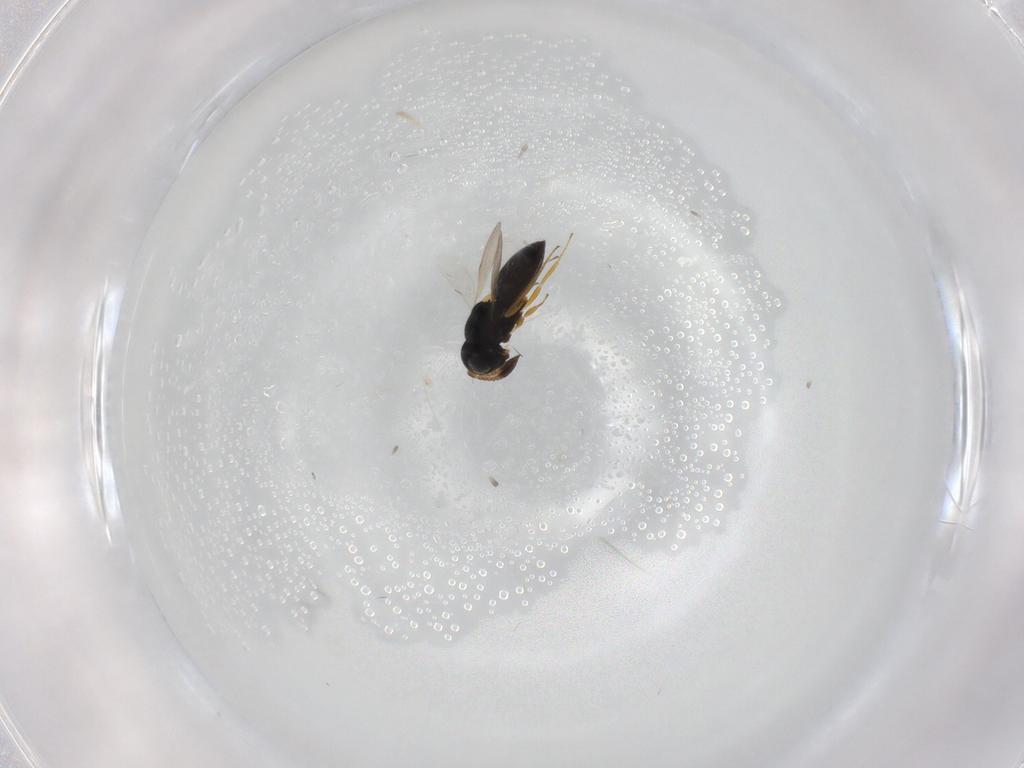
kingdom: Animalia
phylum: Arthropoda
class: Insecta
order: Hymenoptera
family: Scelionidae
